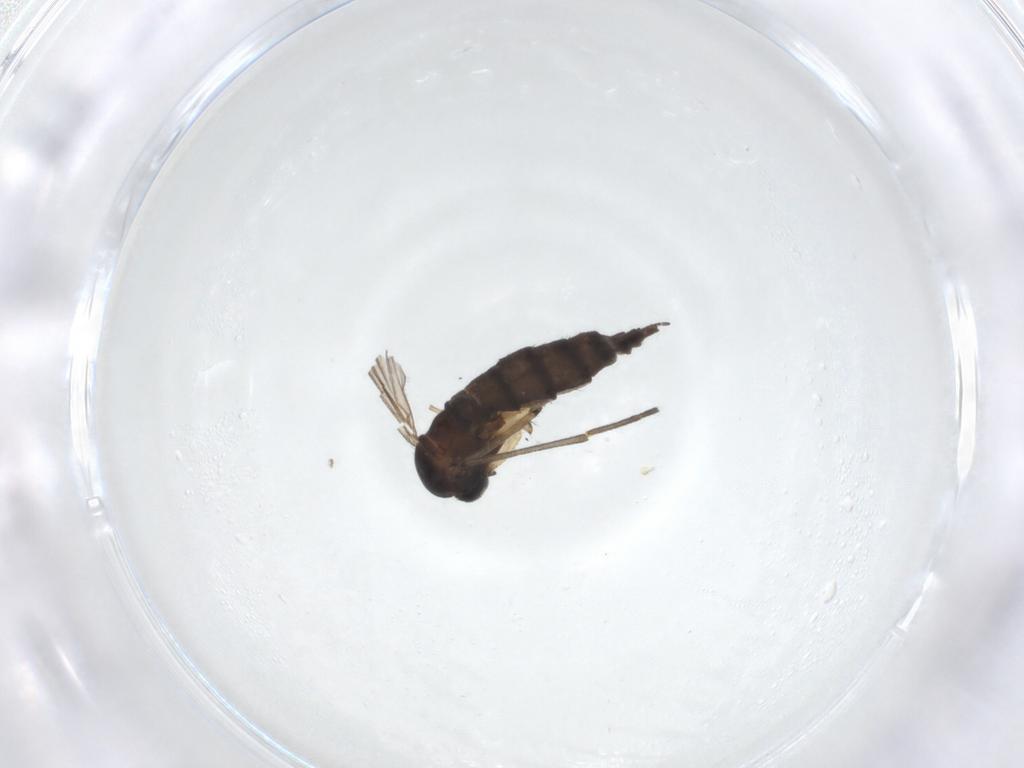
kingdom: Animalia
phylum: Arthropoda
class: Insecta
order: Diptera
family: Sciaridae
